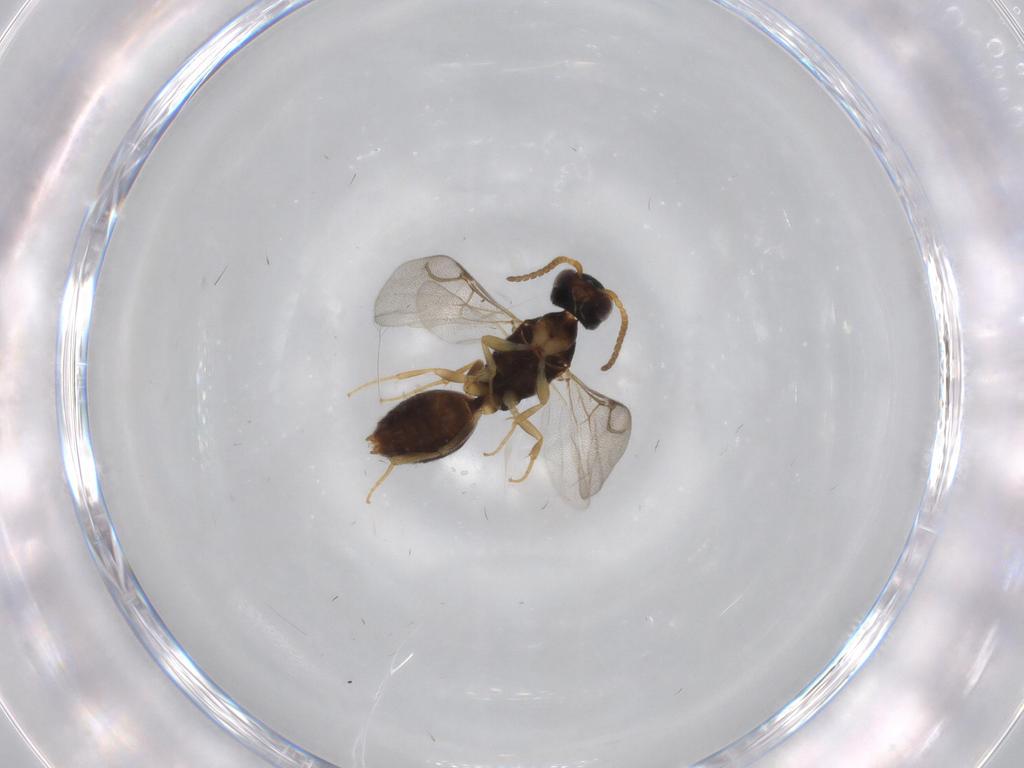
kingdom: Animalia
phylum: Arthropoda
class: Insecta
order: Hymenoptera
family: Bethylidae
